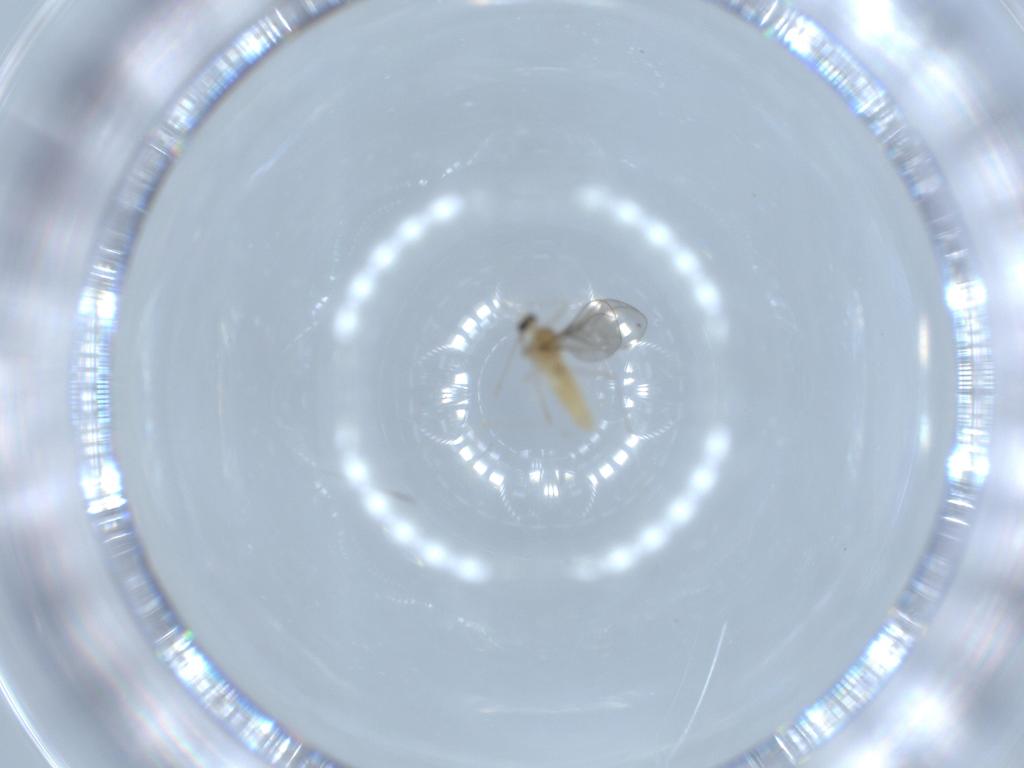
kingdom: Animalia
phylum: Arthropoda
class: Insecta
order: Diptera
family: Cecidomyiidae
